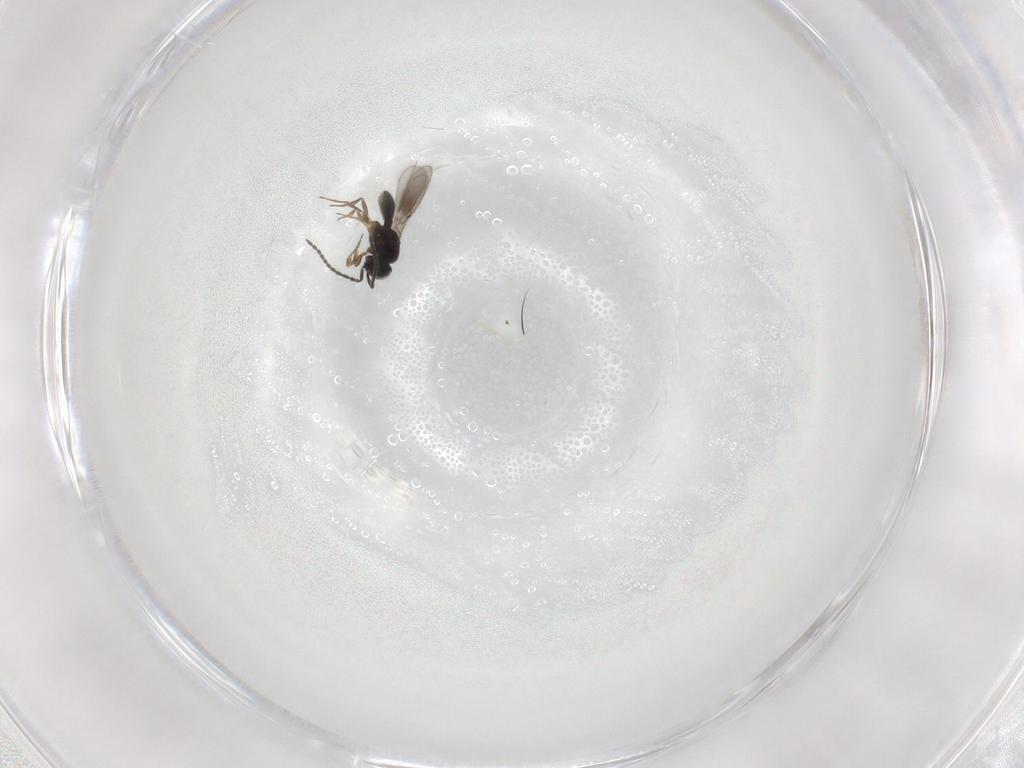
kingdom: Animalia
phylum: Arthropoda
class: Insecta
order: Hymenoptera
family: Scelionidae
